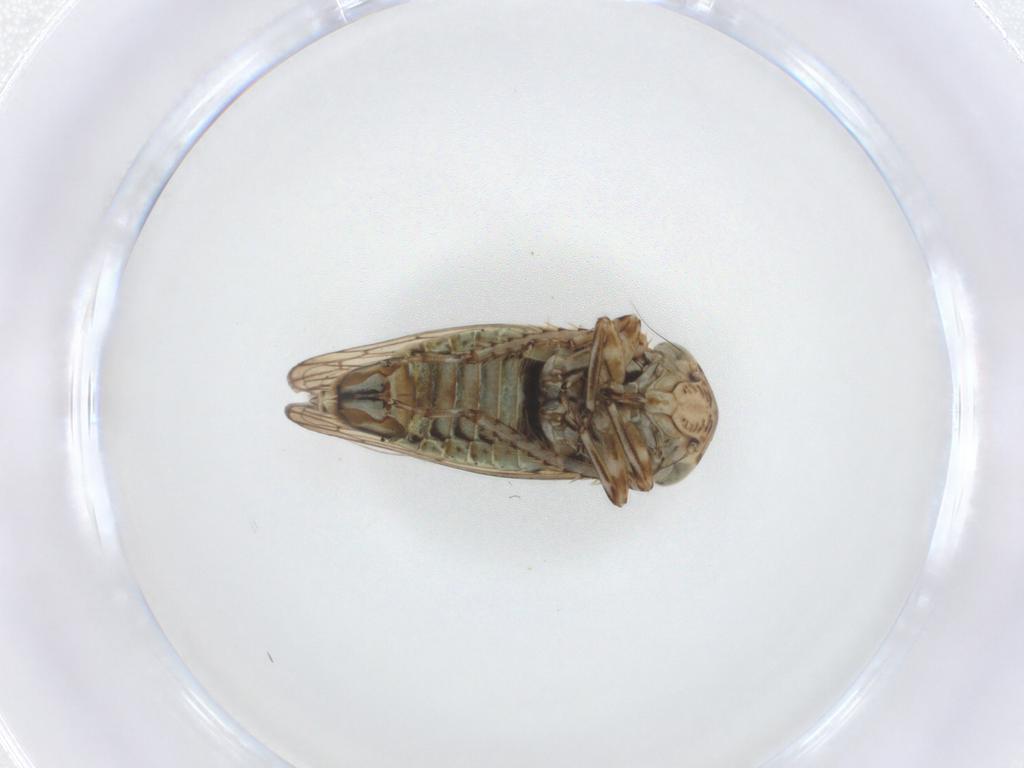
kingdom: Animalia
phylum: Arthropoda
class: Insecta
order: Hemiptera
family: Cicadellidae
